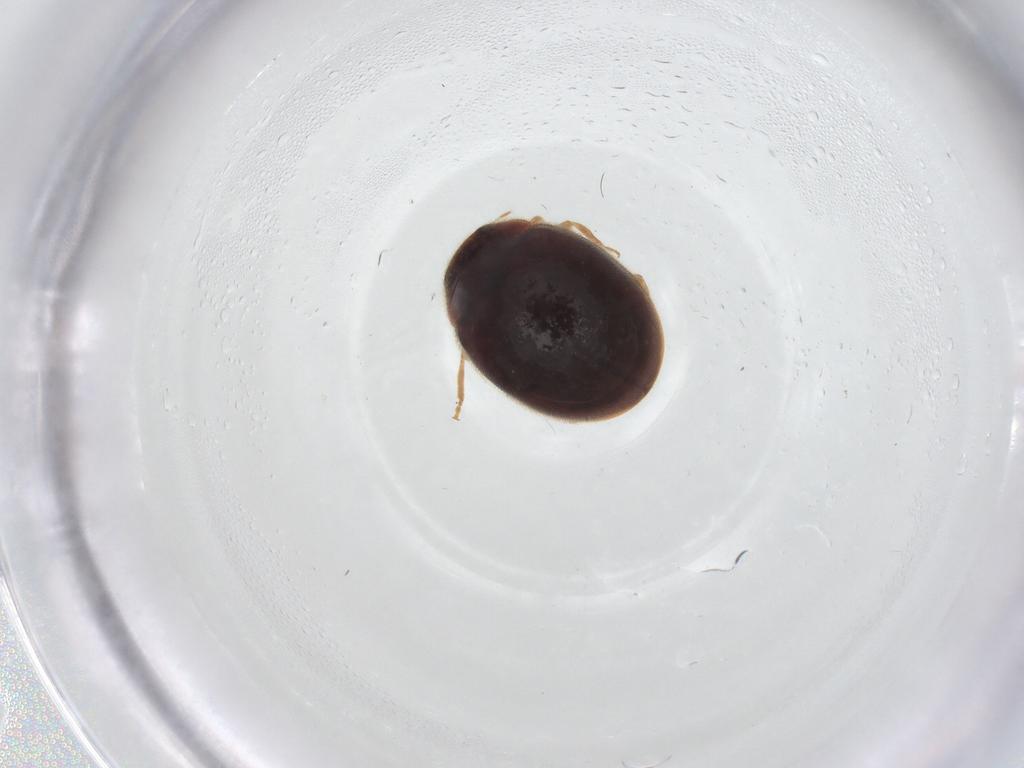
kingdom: Animalia
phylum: Arthropoda
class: Insecta
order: Coleoptera
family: Coccinellidae
